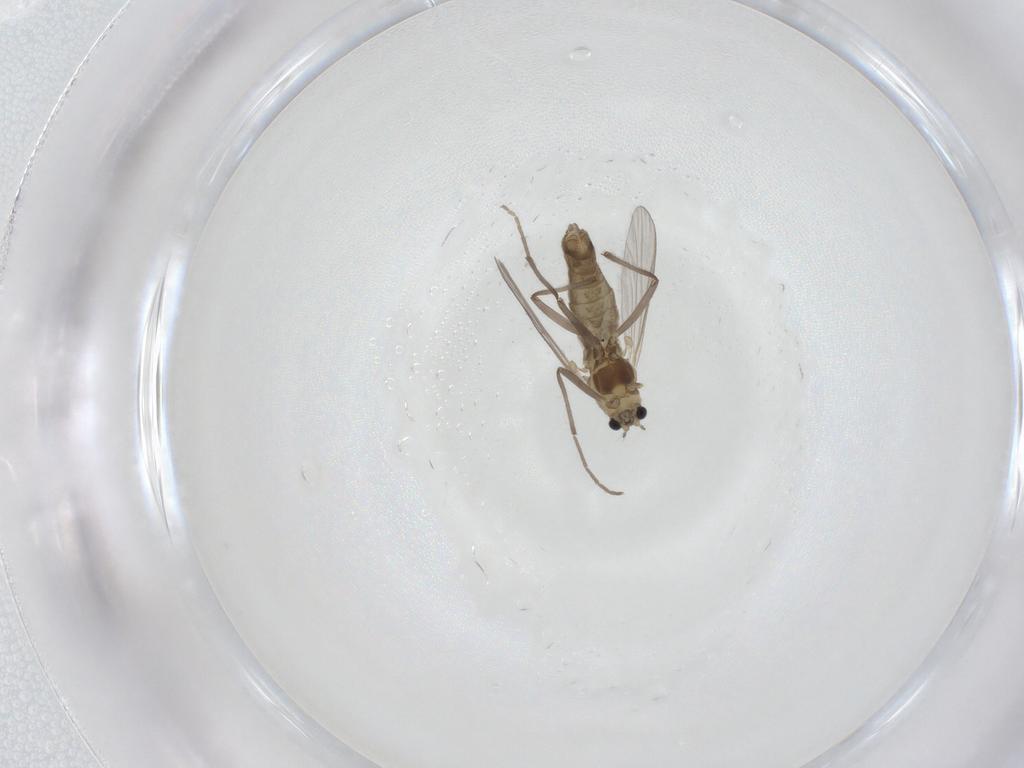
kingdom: Animalia
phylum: Arthropoda
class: Insecta
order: Diptera
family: Chironomidae
